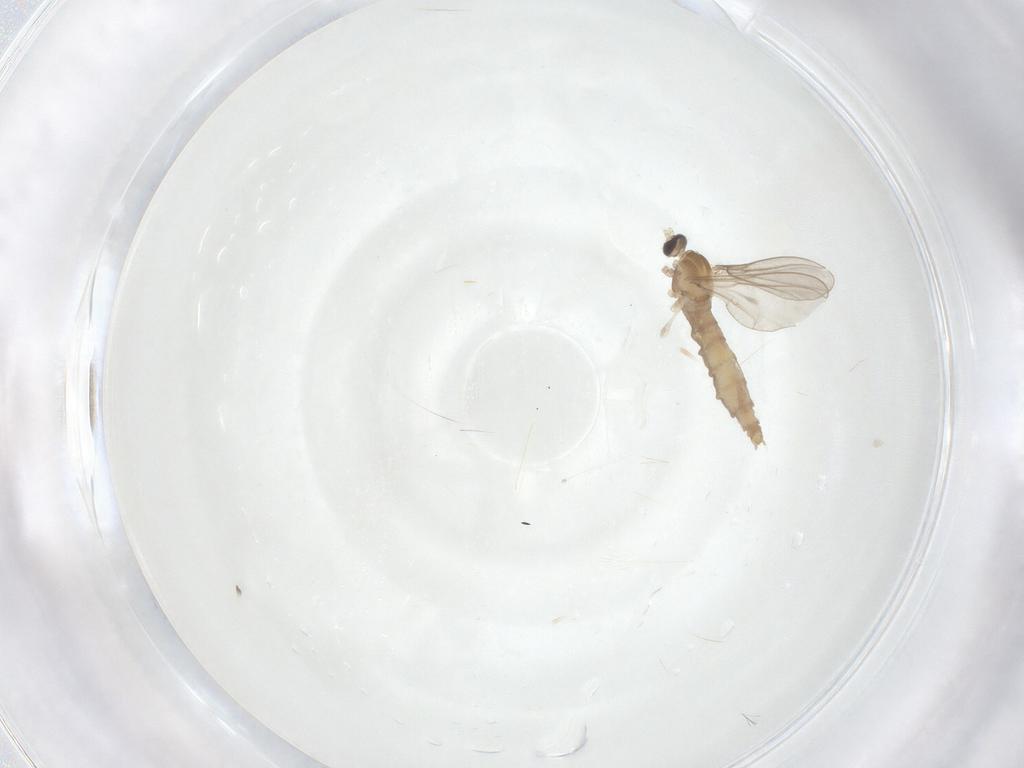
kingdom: Animalia
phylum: Arthropoda
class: Insecta
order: Diptera
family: Cecidomyiidae
